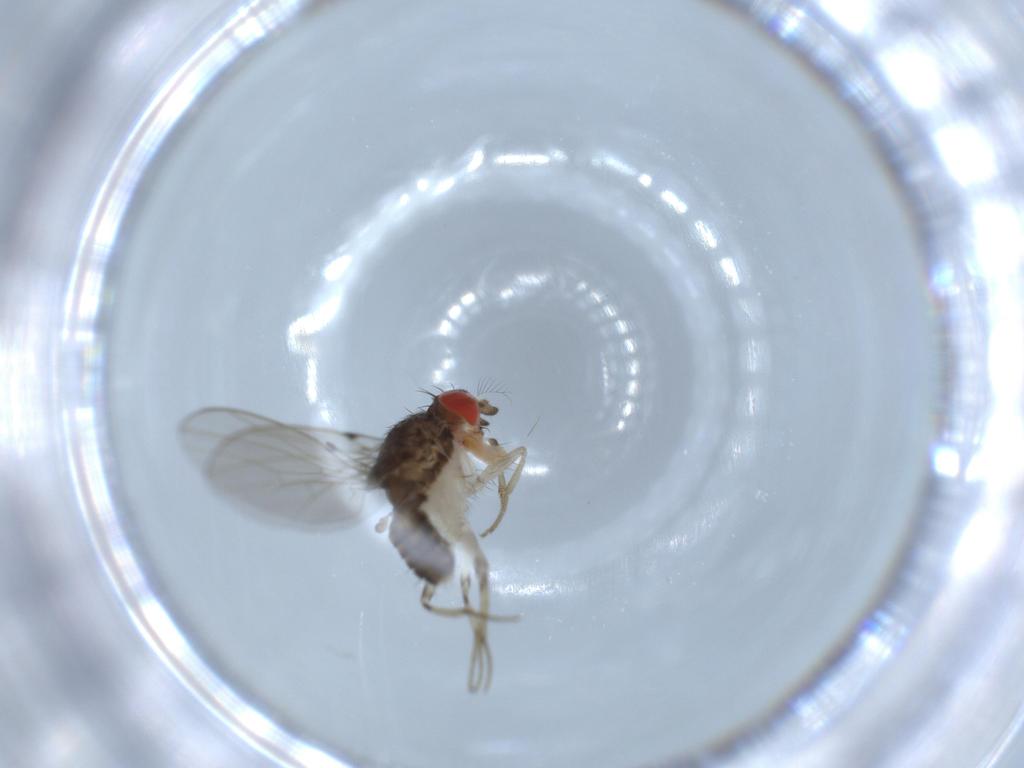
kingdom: Animalia
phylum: Arthropoda
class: Insecta
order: Diptera
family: Drosophilidae
